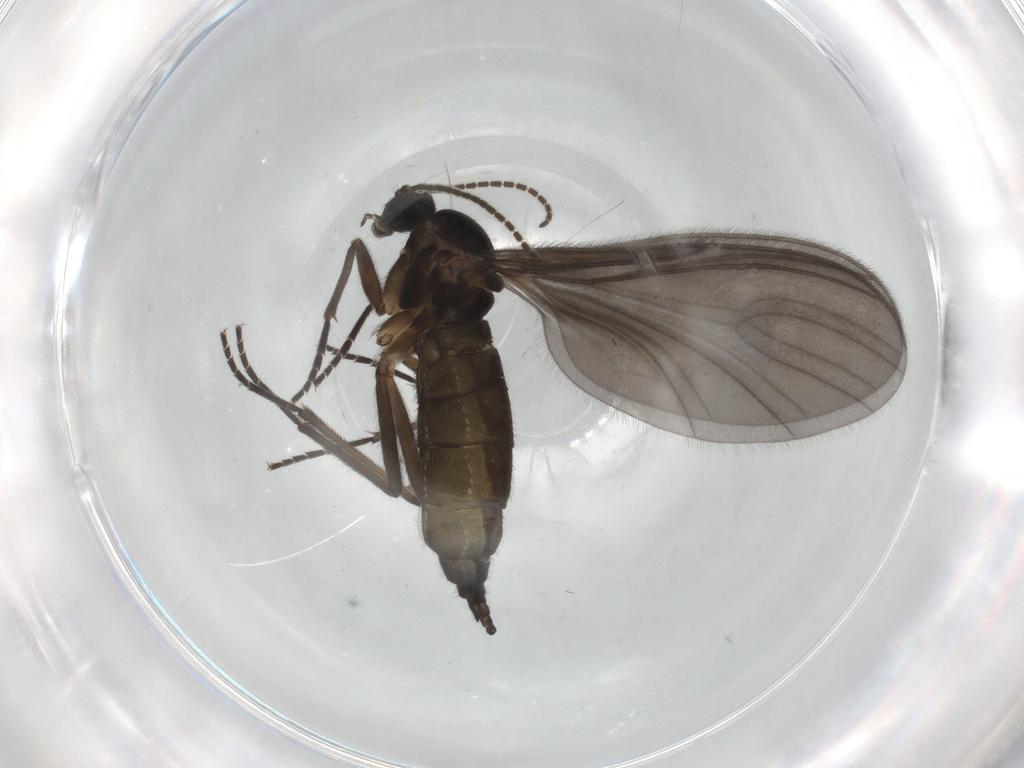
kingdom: Animalia
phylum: Arthropoda
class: Insecta
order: Diptera
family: Sciaridae
